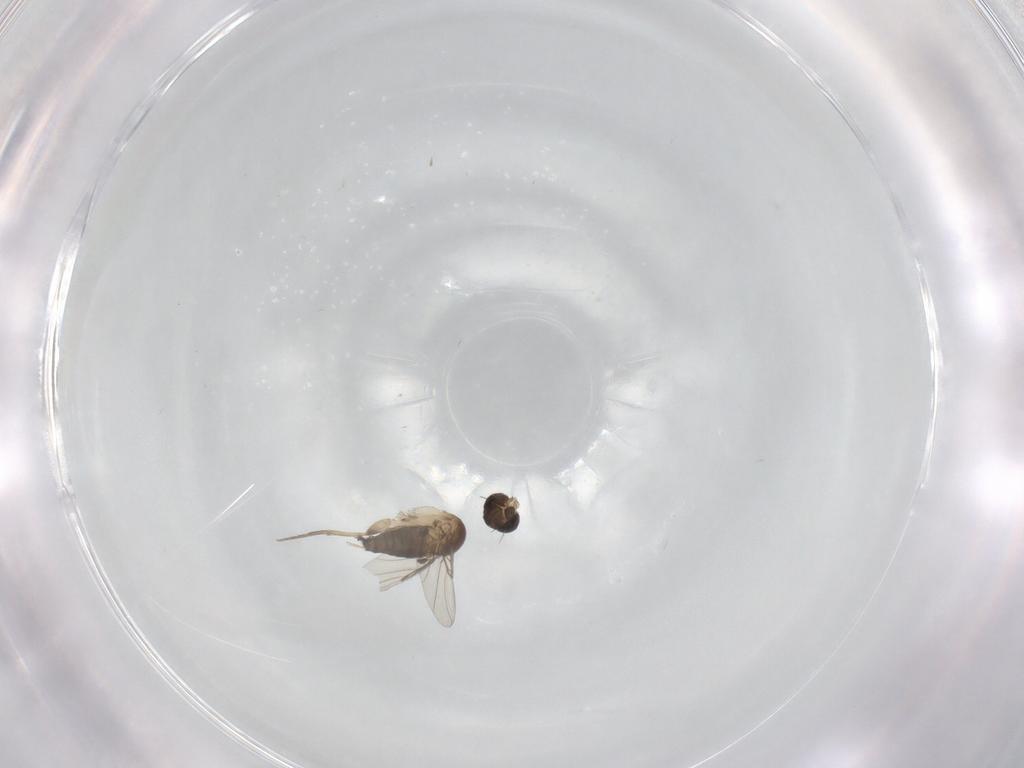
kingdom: Animalia
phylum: Arthropoda
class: Insecta
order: Diptera
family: Phoridae
